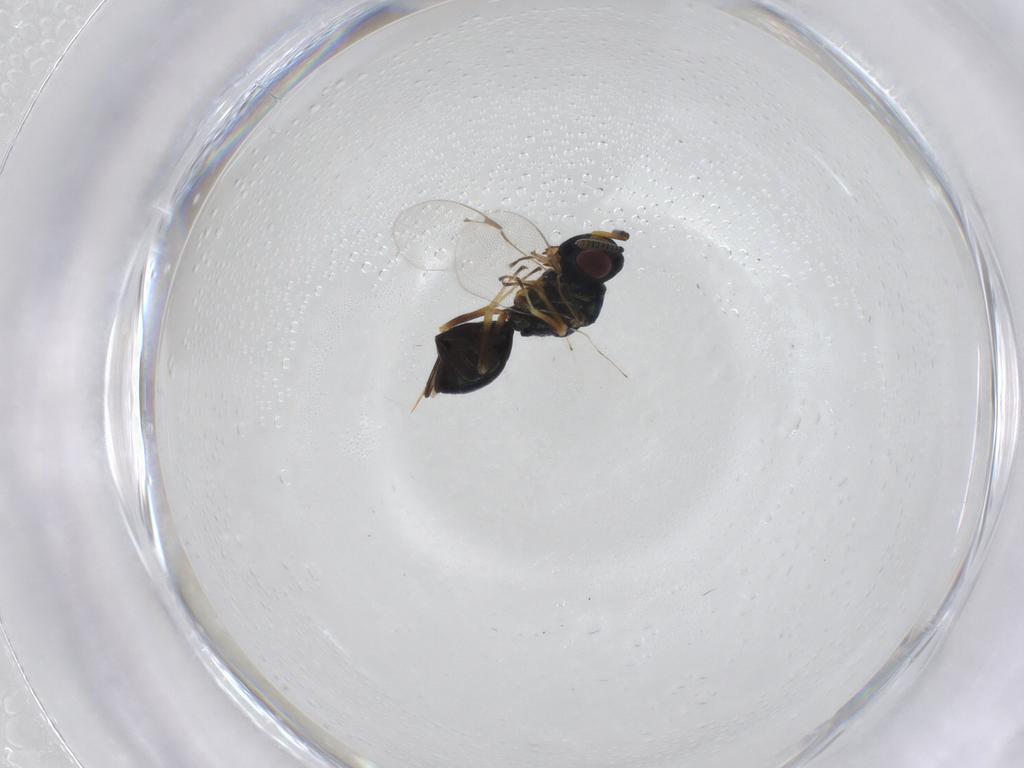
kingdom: Animalia
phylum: Arthropoda
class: Insecta
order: Hymenoptera
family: Pteromalidae
